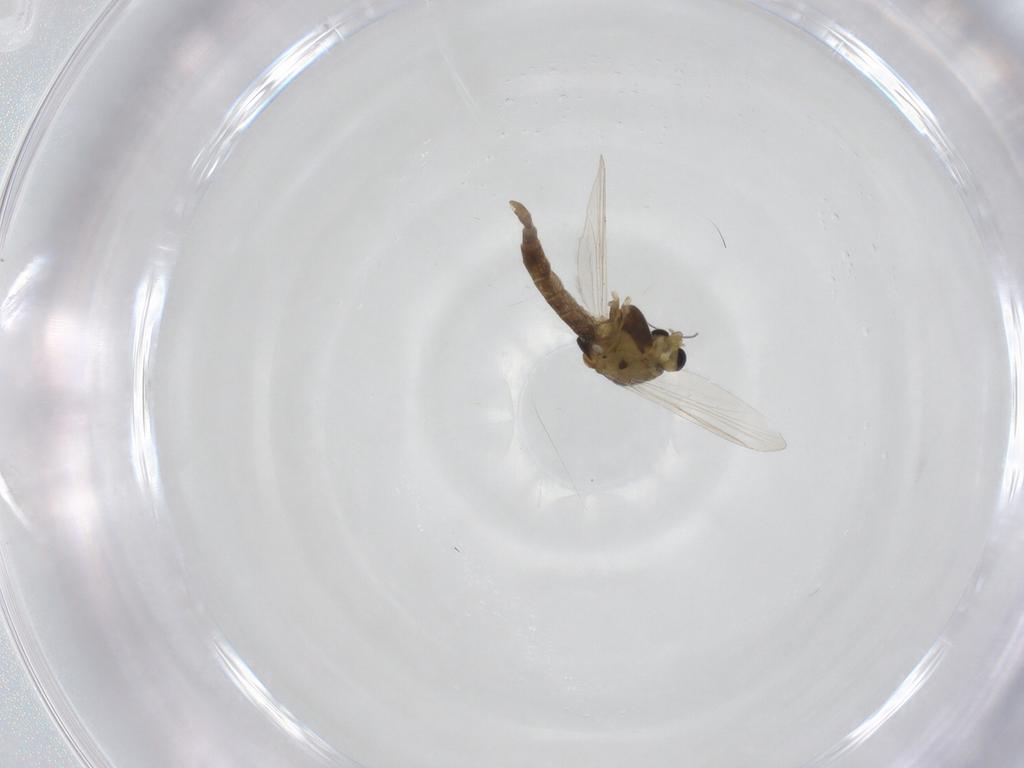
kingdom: Animalia
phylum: Arthropoda
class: Insecta
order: Diptera
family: Chironomidae
